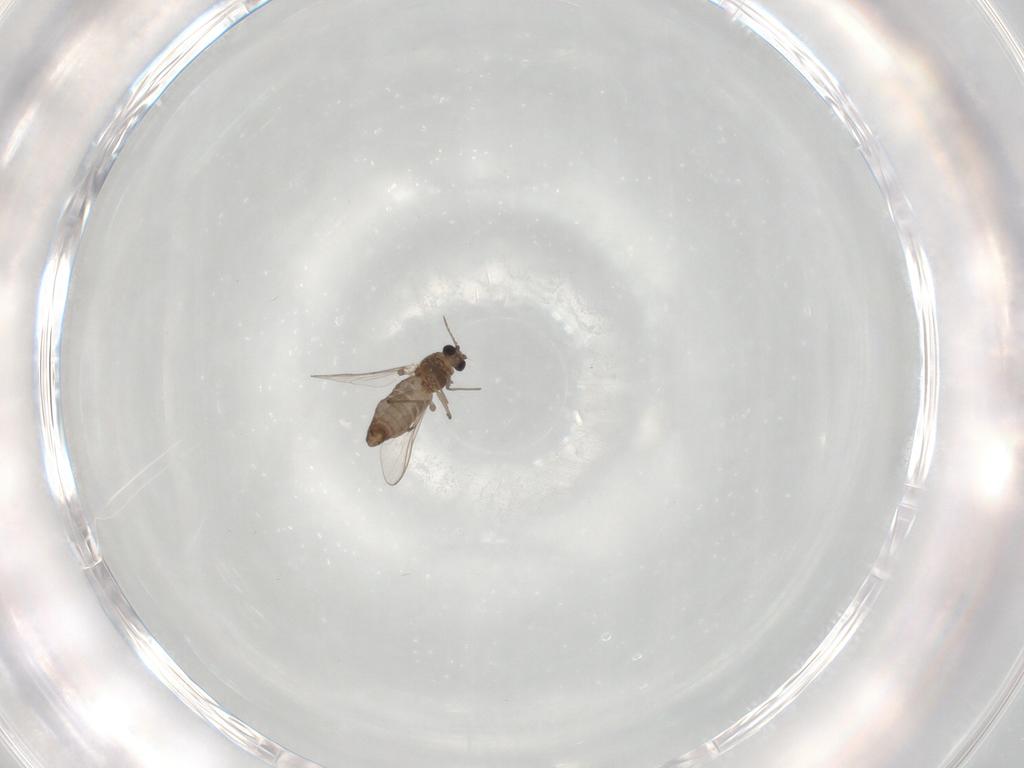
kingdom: Animalia
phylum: Arthropoda
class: Insecta
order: Diptera
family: Chironomidae
